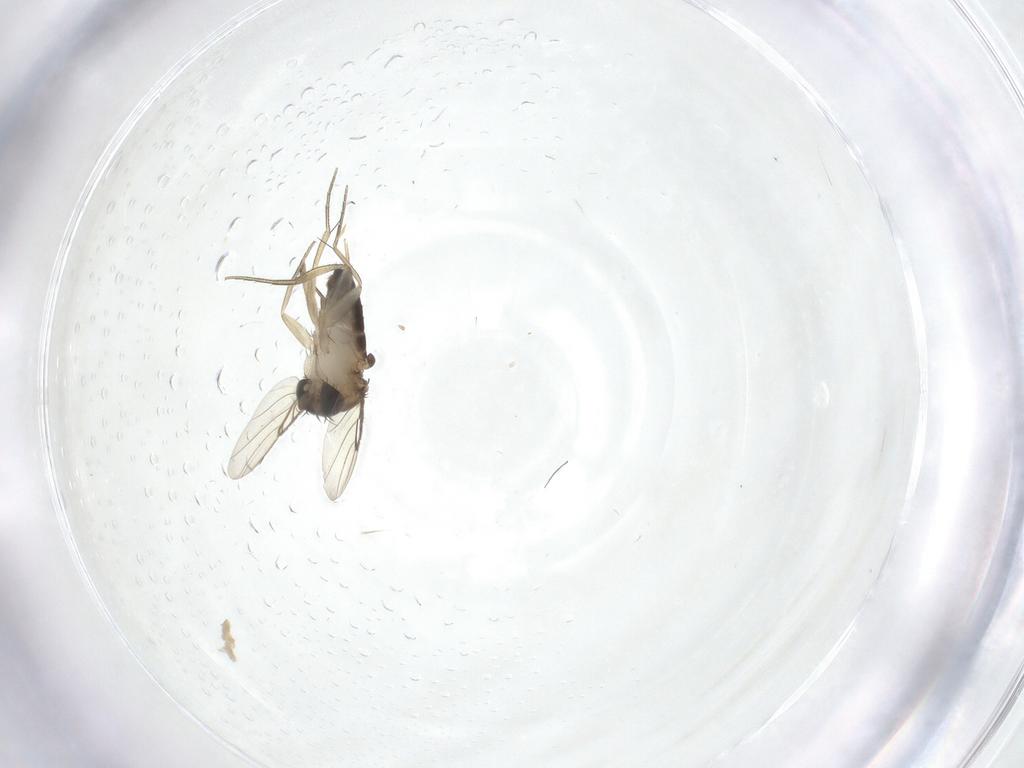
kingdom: Animalia
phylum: Arthropoda
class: Insecta
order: Diptera
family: Phoridae
